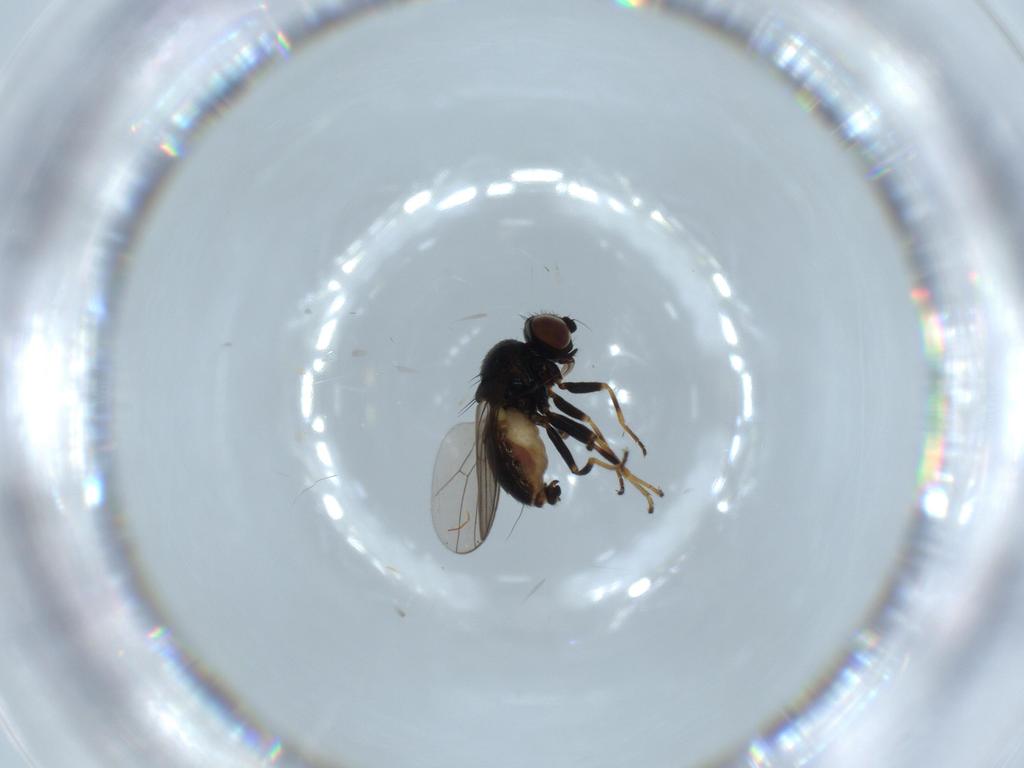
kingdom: Animalia
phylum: Arthropoda
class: Insecta
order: Diptera
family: Chloropidae
